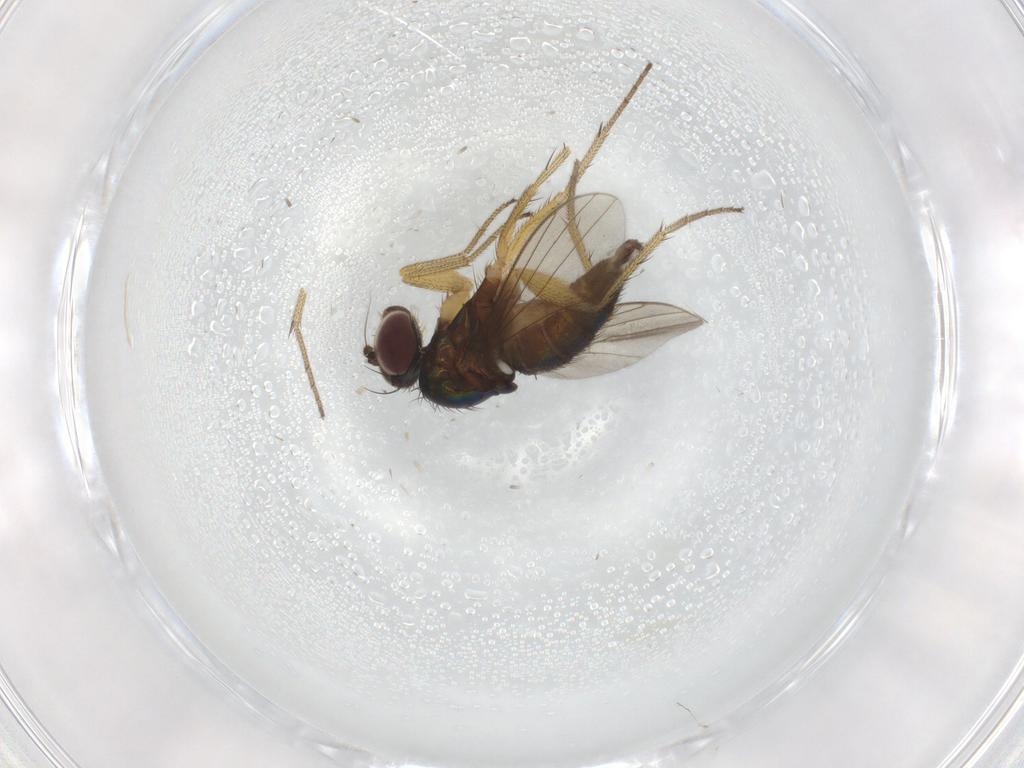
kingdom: Animalia
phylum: Arthropoda
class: Insecta
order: Diptera
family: Dolichopodidae
